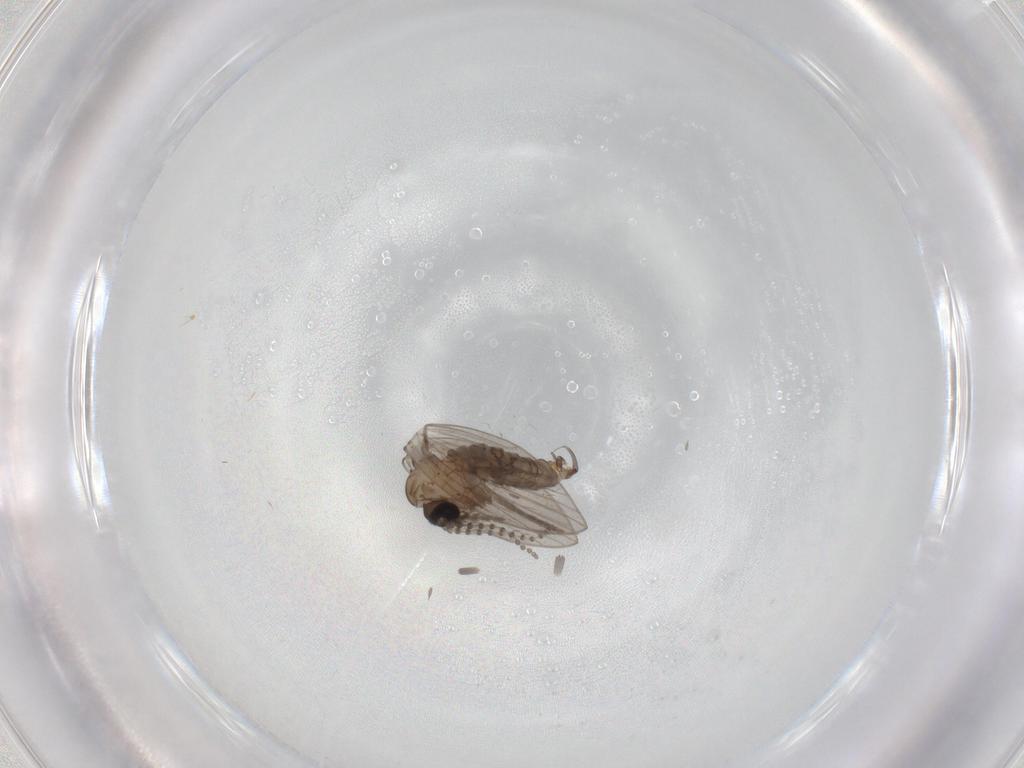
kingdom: Animalia
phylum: Arthropoda
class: Insecta
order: Diptera
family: Psychodidae
